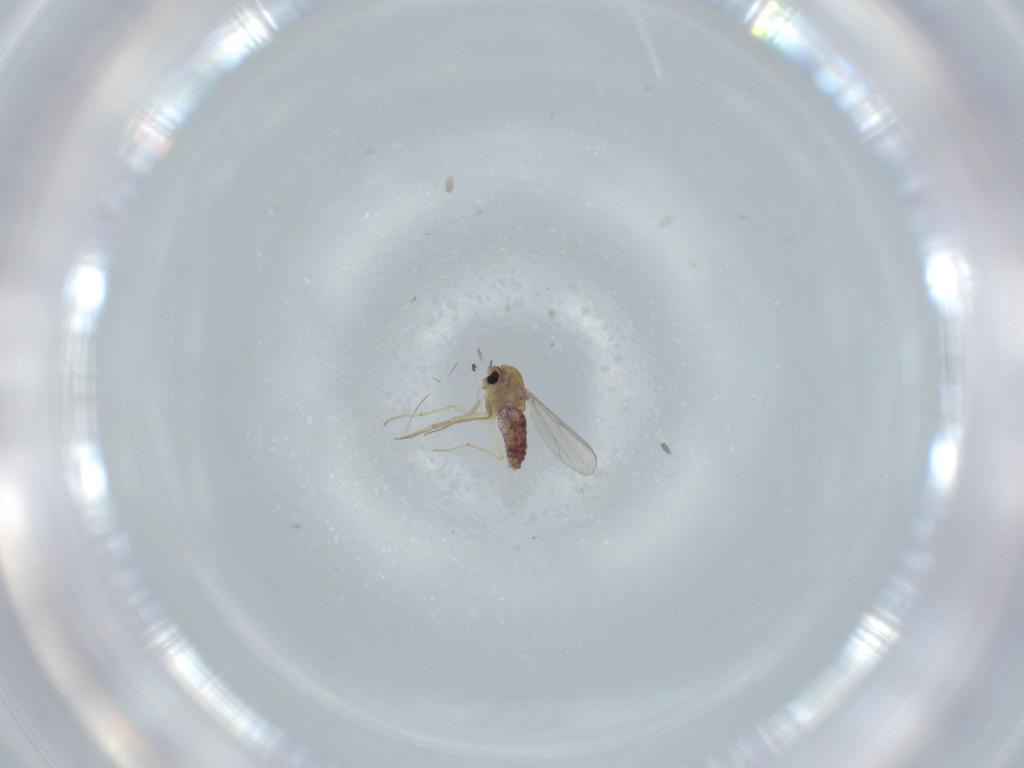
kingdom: Animalia
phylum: Arthropoda
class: Insecta
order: Diptera
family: Chironomidae
